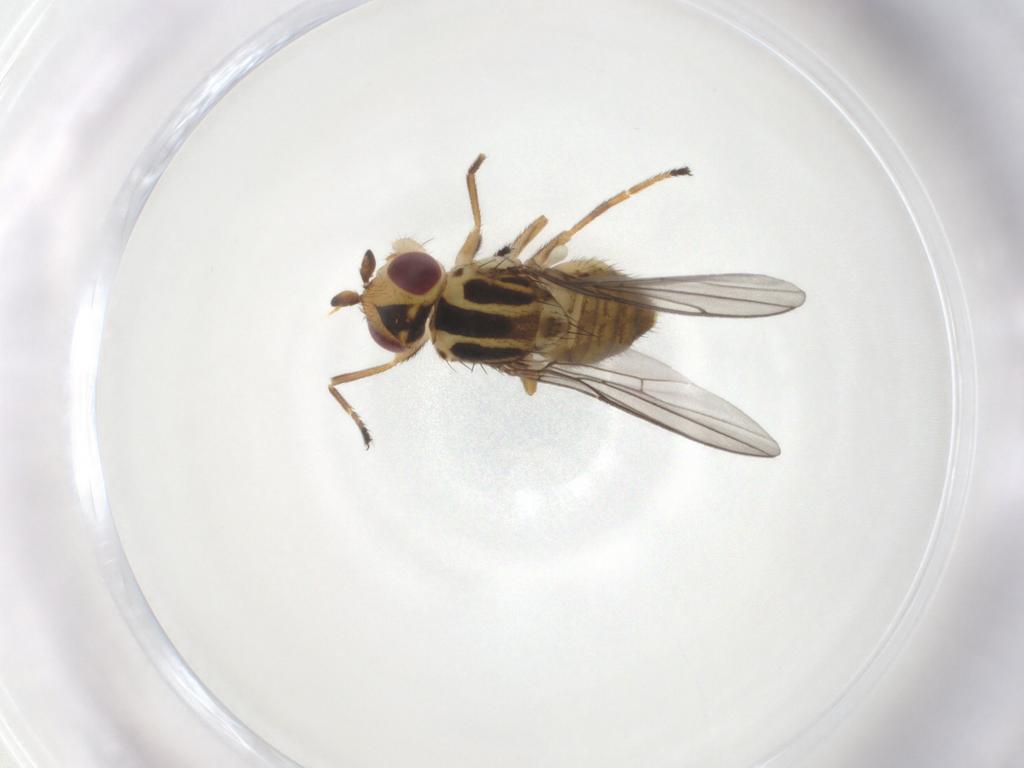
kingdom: Animalia
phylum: Arthropoda
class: Insecta
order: Diptera
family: Chloropidae
